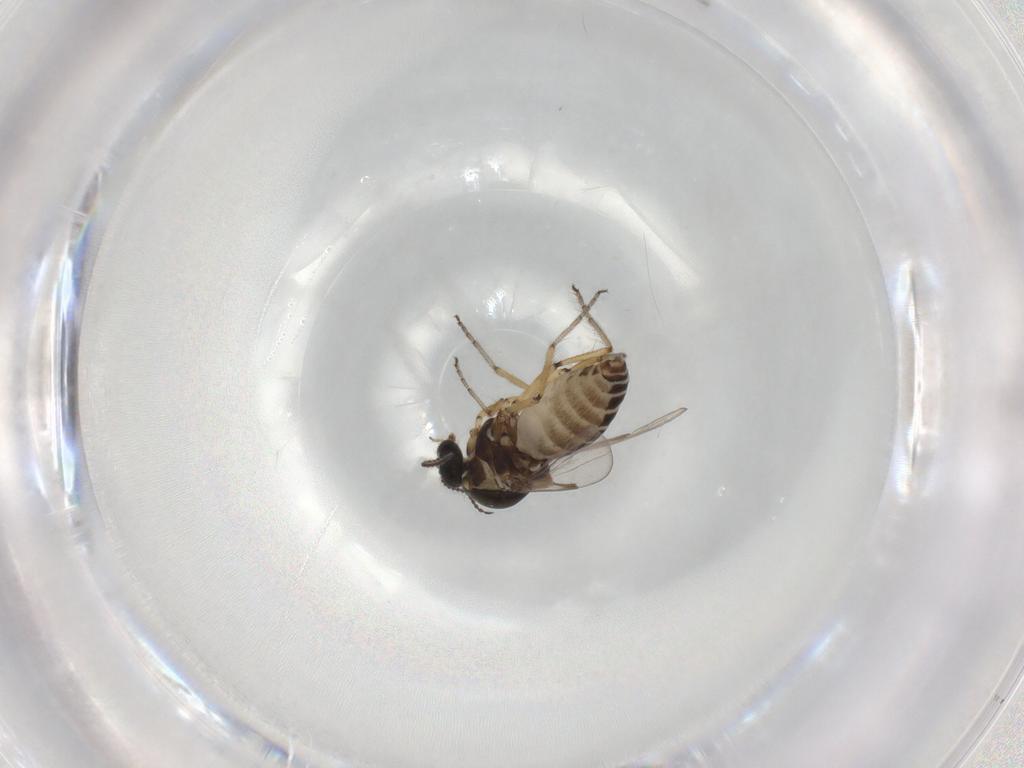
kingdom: Animalia
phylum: Arthropoda
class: Insecta
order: Diptera
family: Ceratopogonidae
